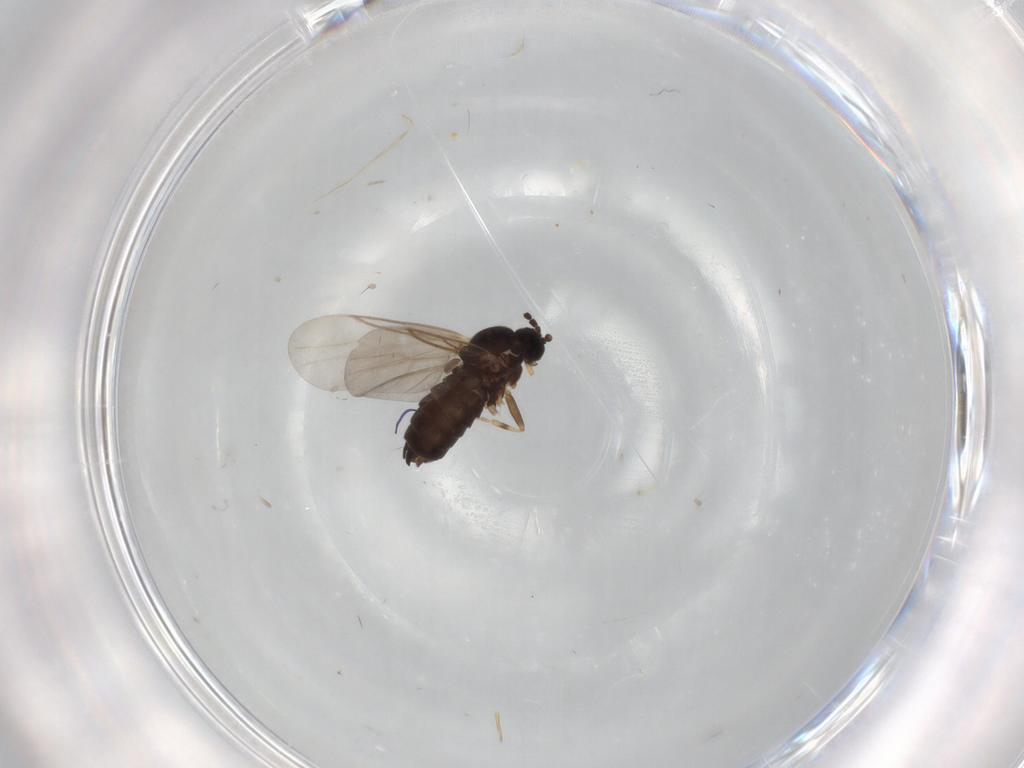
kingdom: Animalia
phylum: Arthropoda
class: Insecta
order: Diptera
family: Scatopsidae
